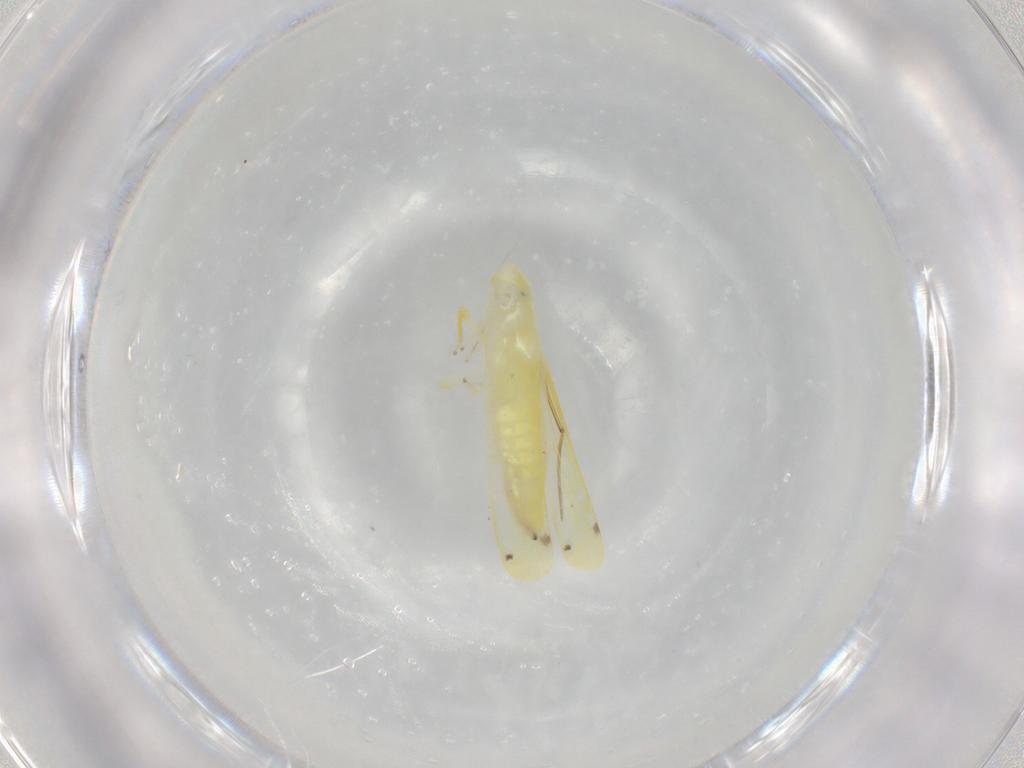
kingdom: Animalia
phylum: Arthropoda
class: Insecta
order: Hemiptera
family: Cicadellidae
